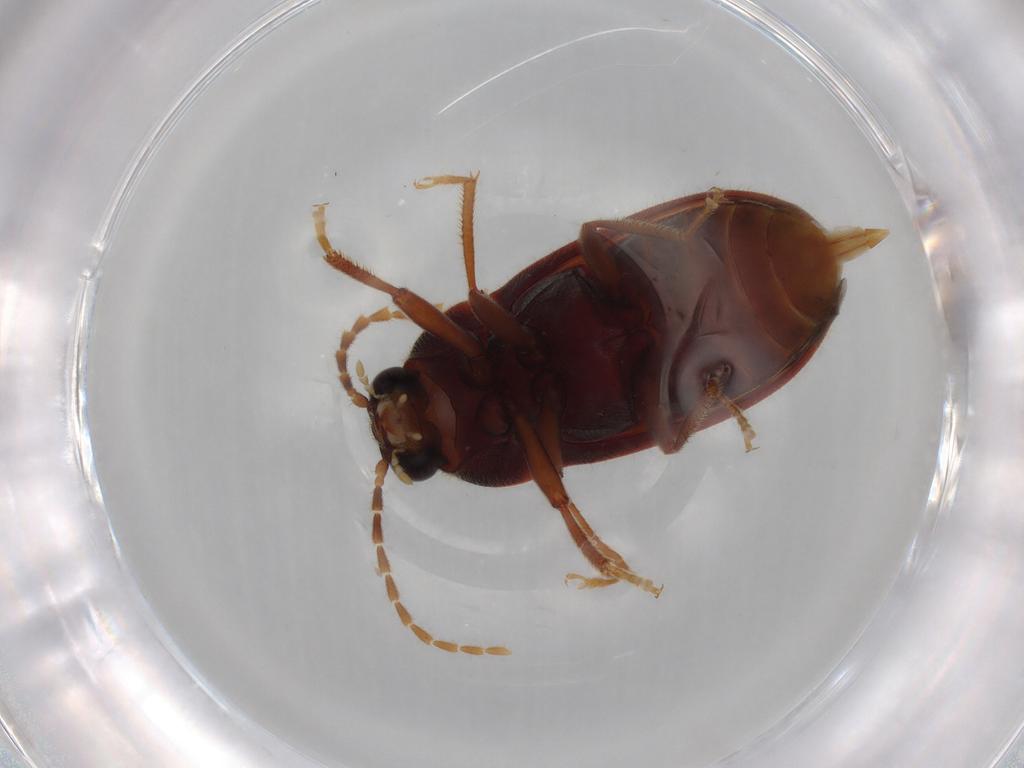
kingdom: Animalia
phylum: Arthropoda
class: Insecta
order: Coleoptera
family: Ptilodactylidae
